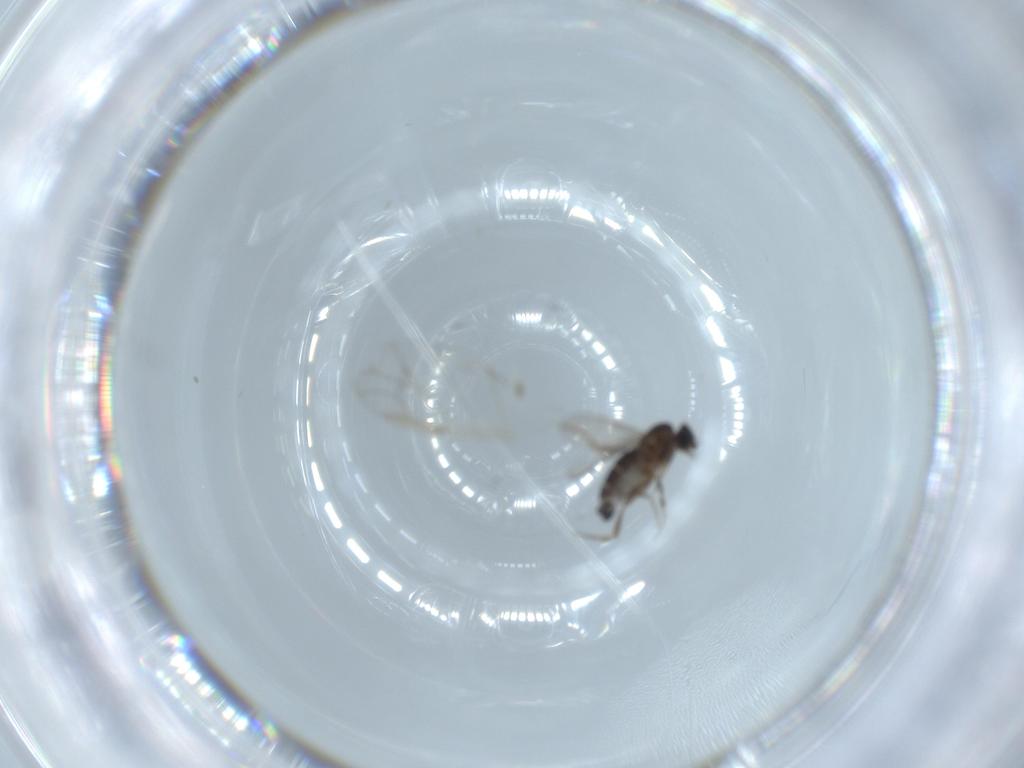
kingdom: Animalia
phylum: Arthropoda
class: Insecta
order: Diptera
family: Phoridae
